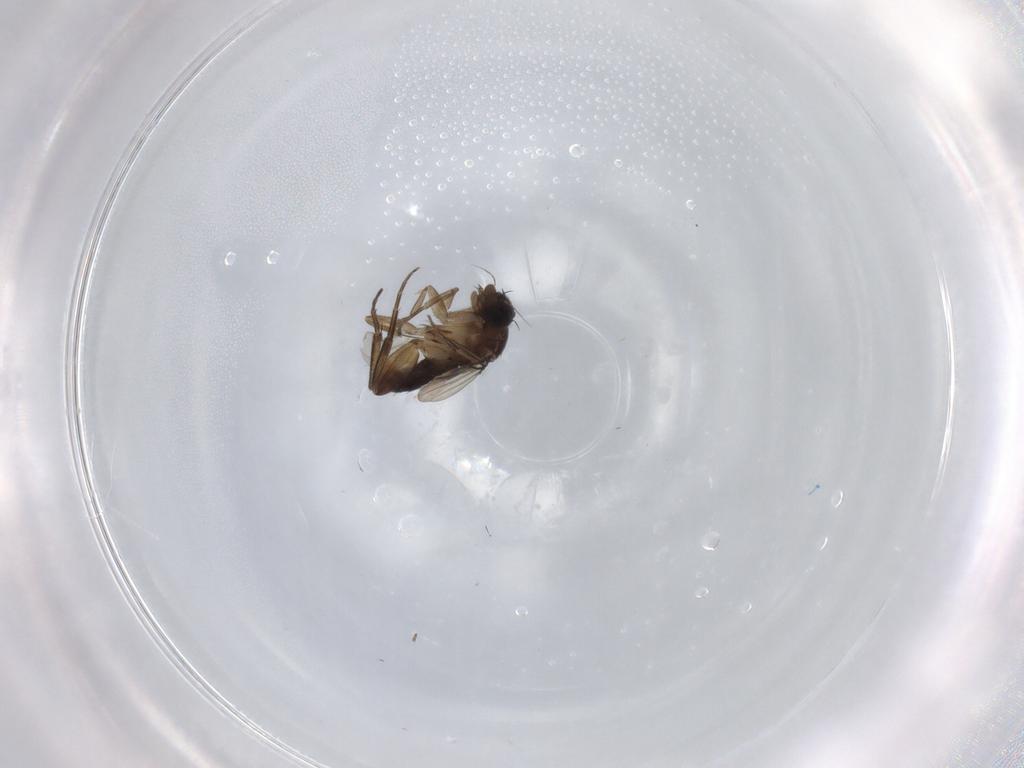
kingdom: Animalia
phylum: Arthropoda
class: Insecta
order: Diptera
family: Phoridae
